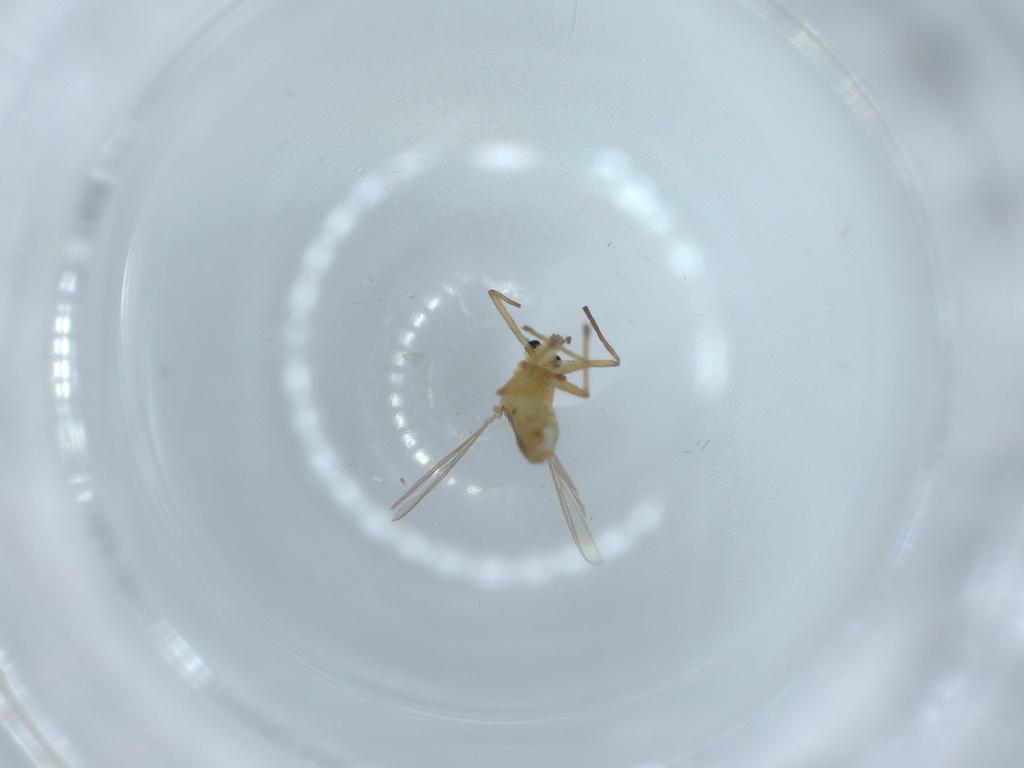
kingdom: Animalia
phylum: Arthropoda
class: Insecta
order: Diptera
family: Chironomidae
